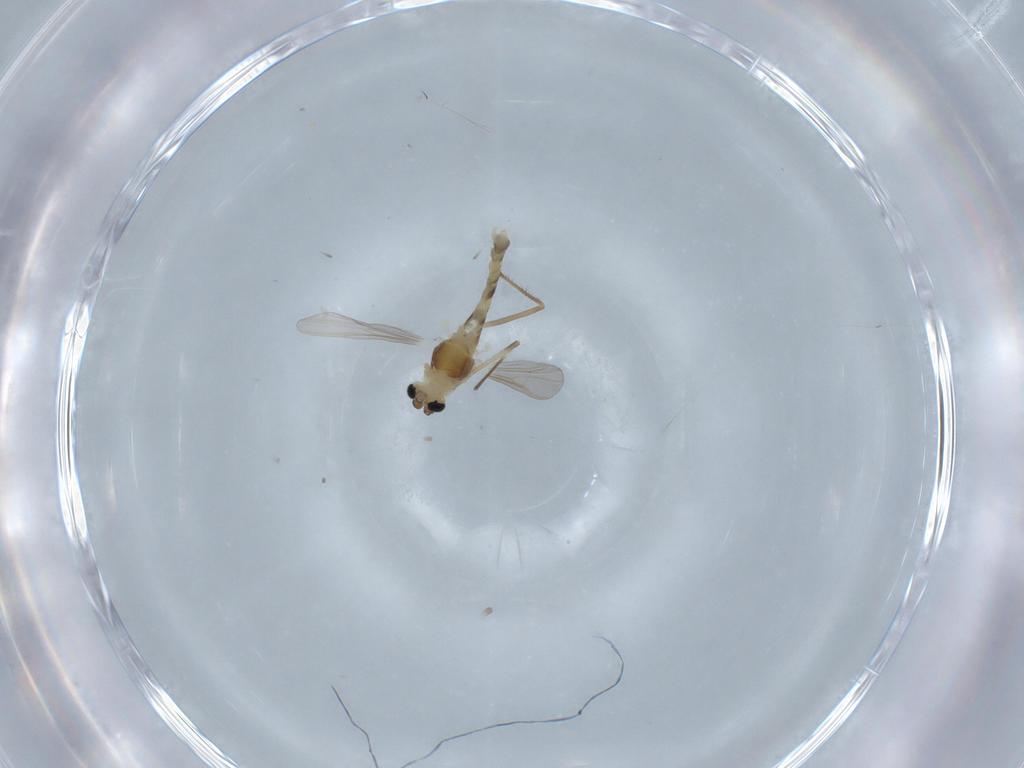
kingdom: Animalia
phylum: Arthropoda
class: Insecta
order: Diptera
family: Chironomidae
